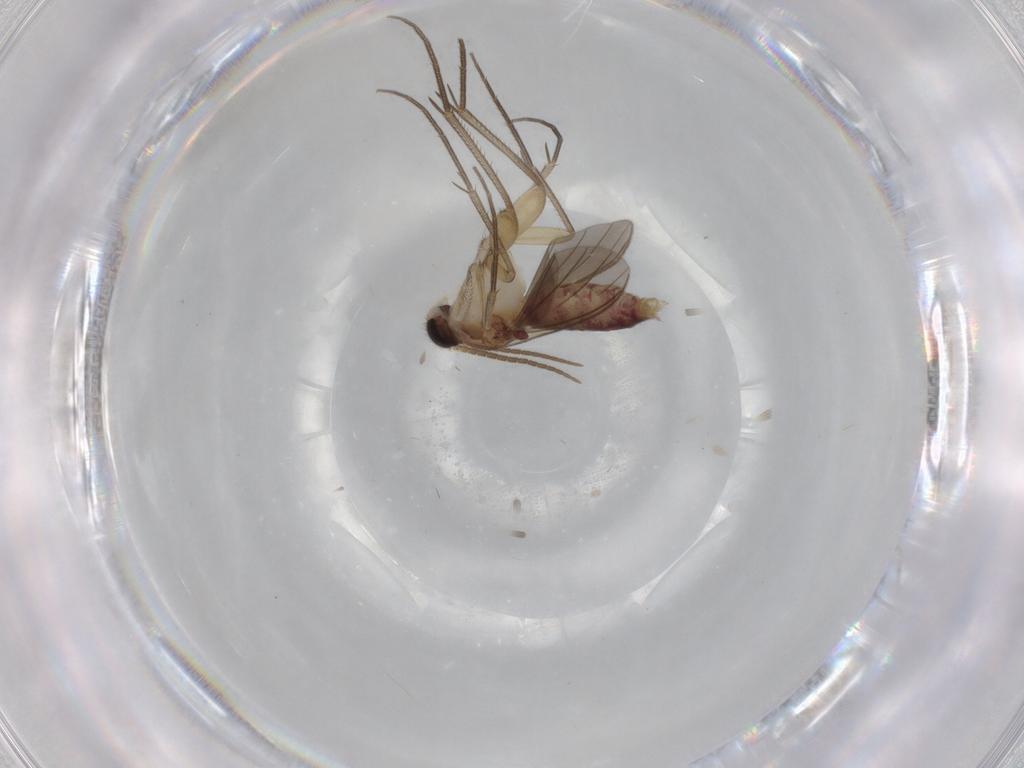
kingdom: Animalia
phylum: Arthropoda
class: Insecta
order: Diptera
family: Mycetophilidae
